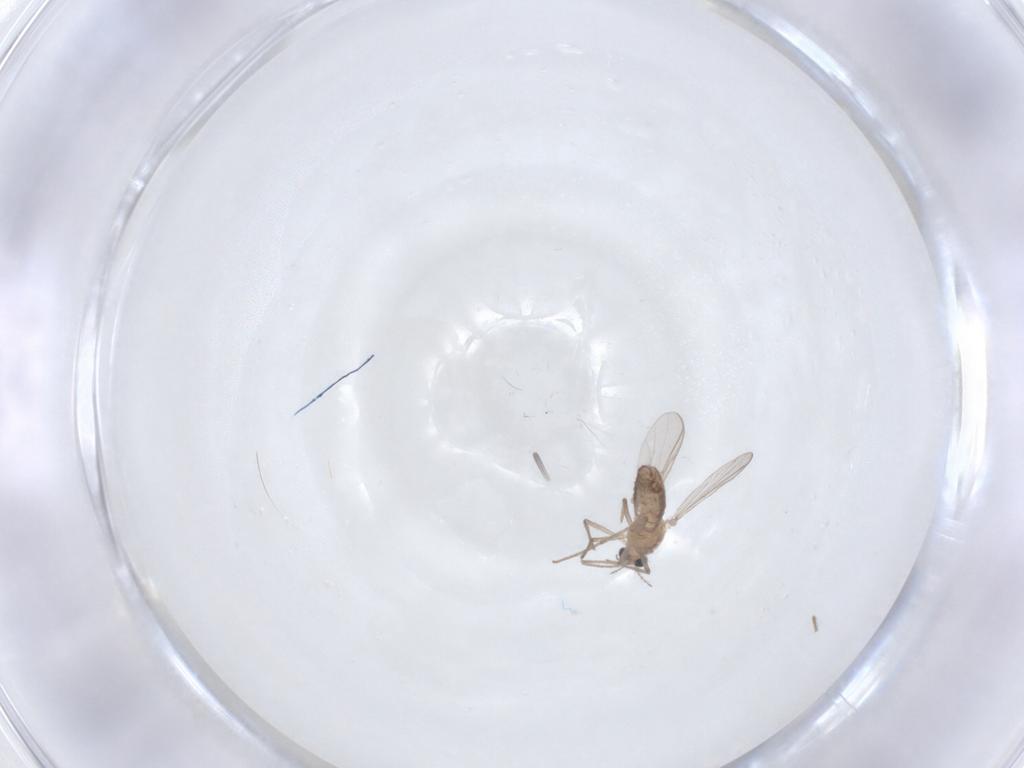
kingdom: Animalia
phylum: Arthropoda
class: Insecta
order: Diptera
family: Chironomidae
